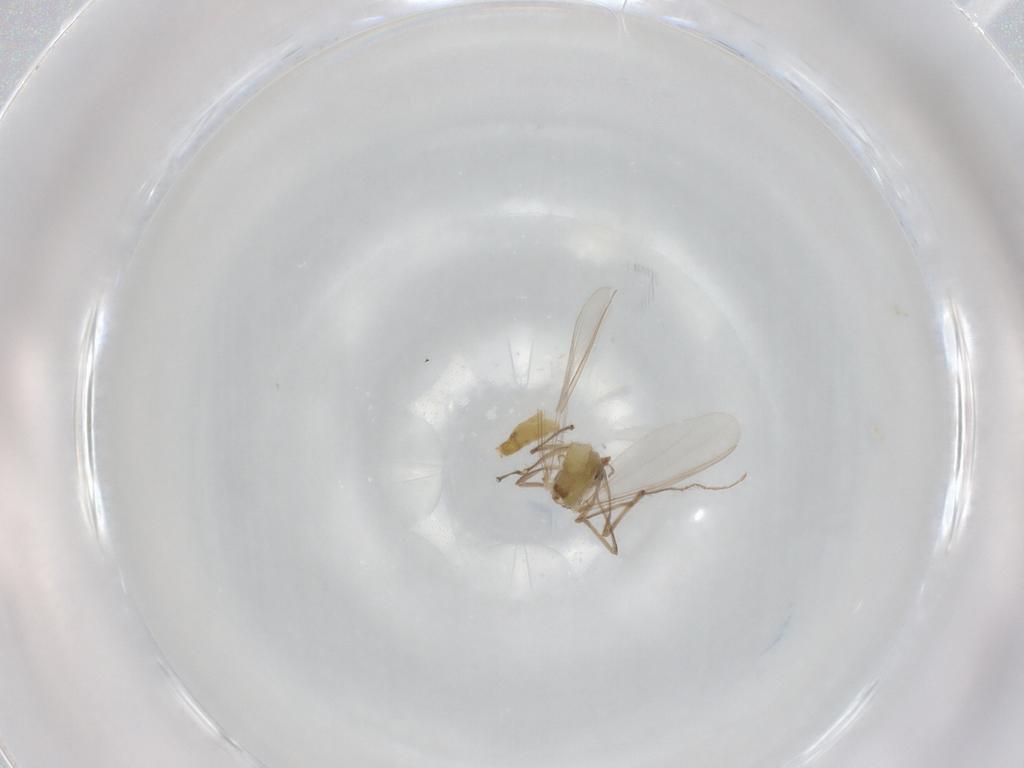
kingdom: Animalia
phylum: Arthropoda
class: Insecta
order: Diptera
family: Chironomidae
